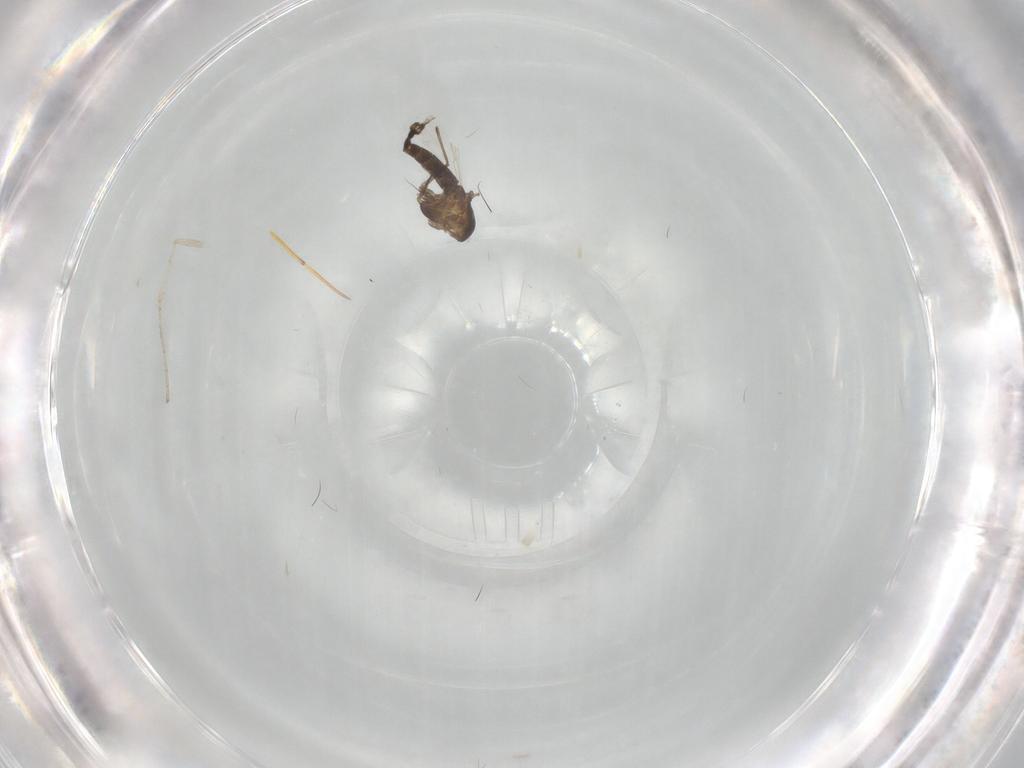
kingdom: Animalia
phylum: Arthropoda
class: Insecta
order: Diptera
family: Chironomidae
